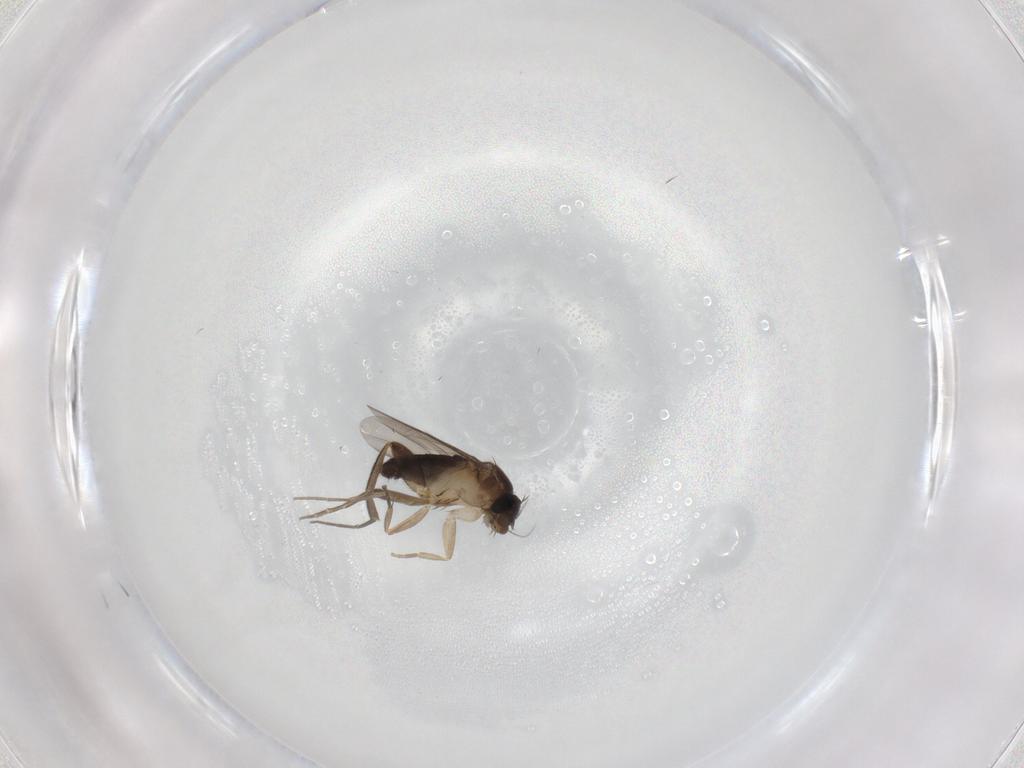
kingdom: Animalia
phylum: Arthropoda
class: Insecta
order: Diptera
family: Phoridae
